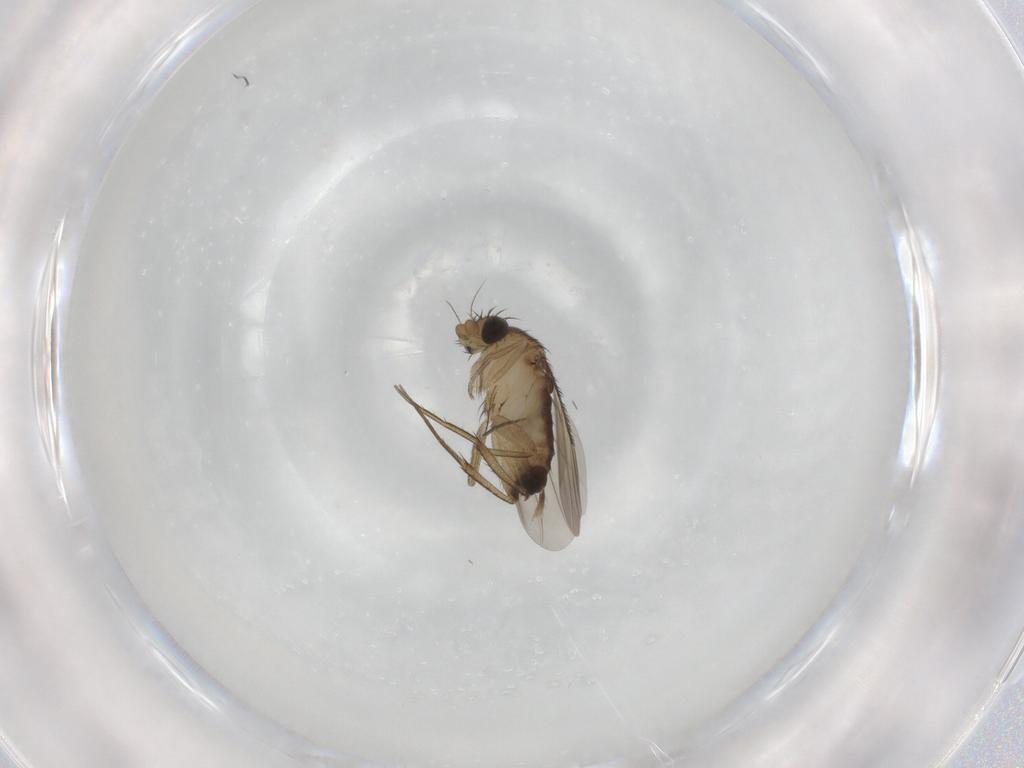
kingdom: Animalia
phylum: Arthropoda
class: Insecta
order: Diptera
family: Phoridae
